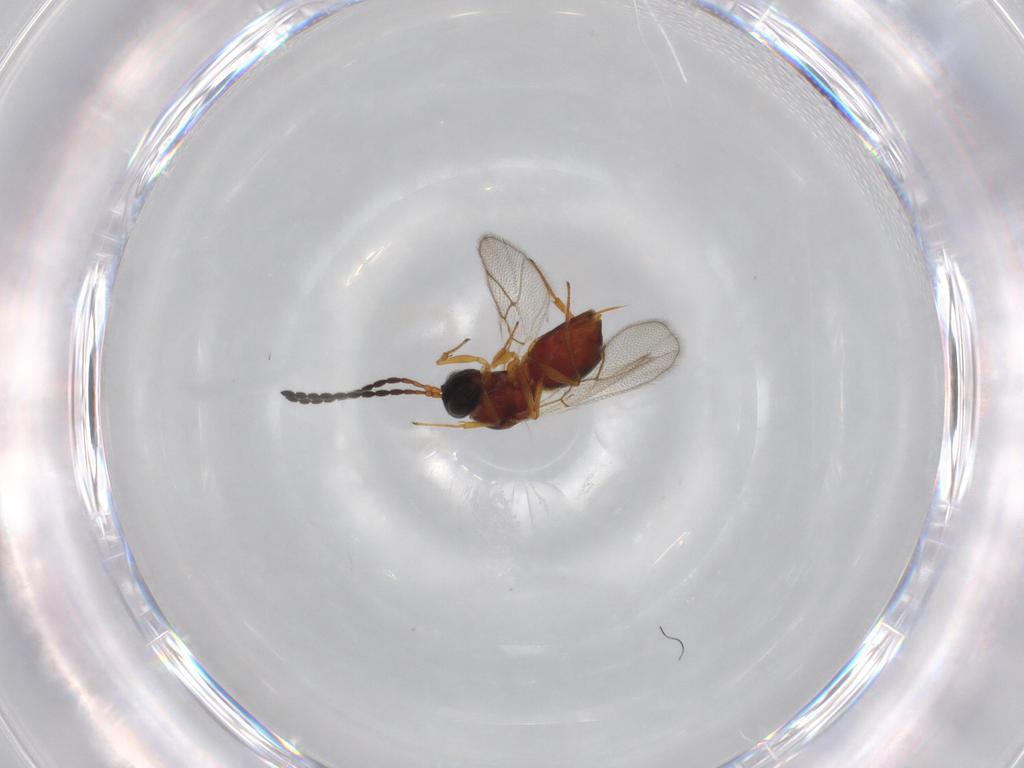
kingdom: Animalia
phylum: Arthropoda
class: Insecta
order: Hymenoptera
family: Figitidae
